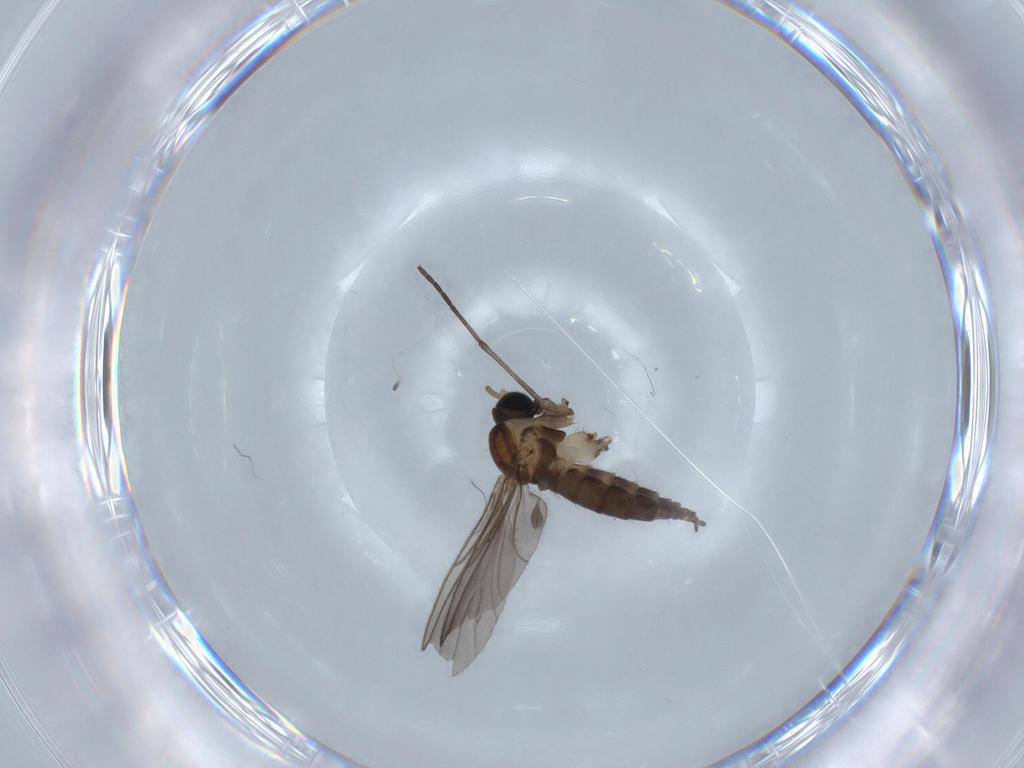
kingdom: Animalia
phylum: Arthropoda
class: Insecta
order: Diptera
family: Sciaridae
